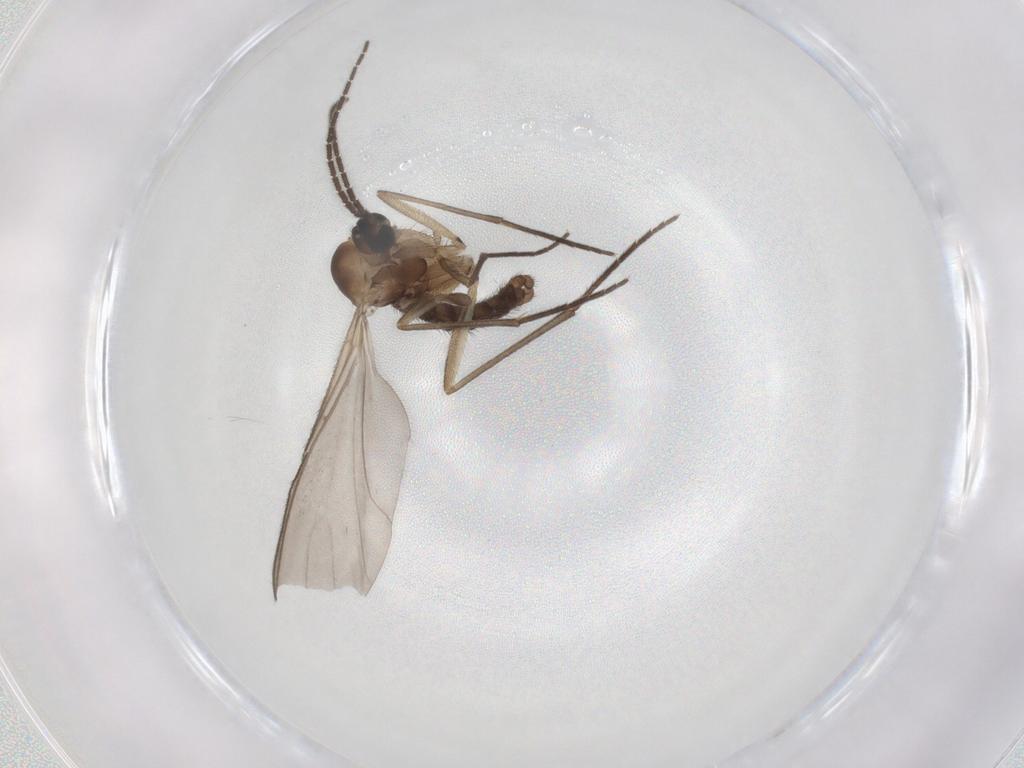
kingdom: Animalia
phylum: Arthropoda
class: Insecta
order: Diptera
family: Sciaridae
